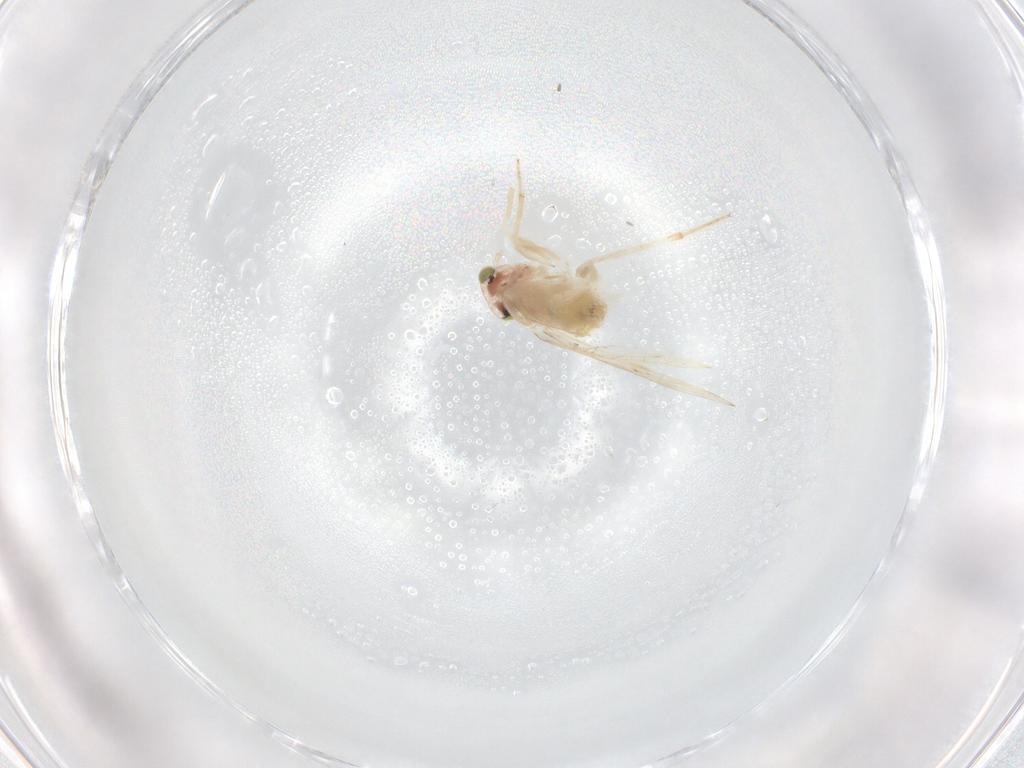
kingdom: Animalia
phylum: Arthropoda
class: Insecta
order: Psocodea
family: Lepidopsocidae
